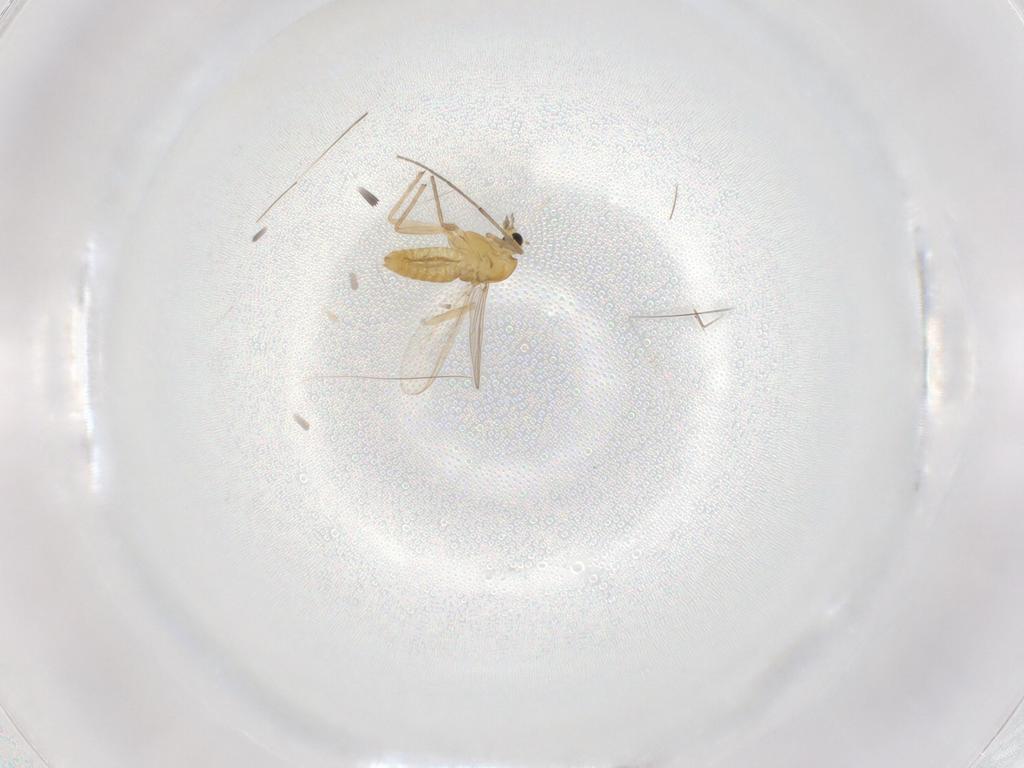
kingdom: Animalia
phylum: Arthropoda
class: Insecta
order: Diptera
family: Chironomidae
